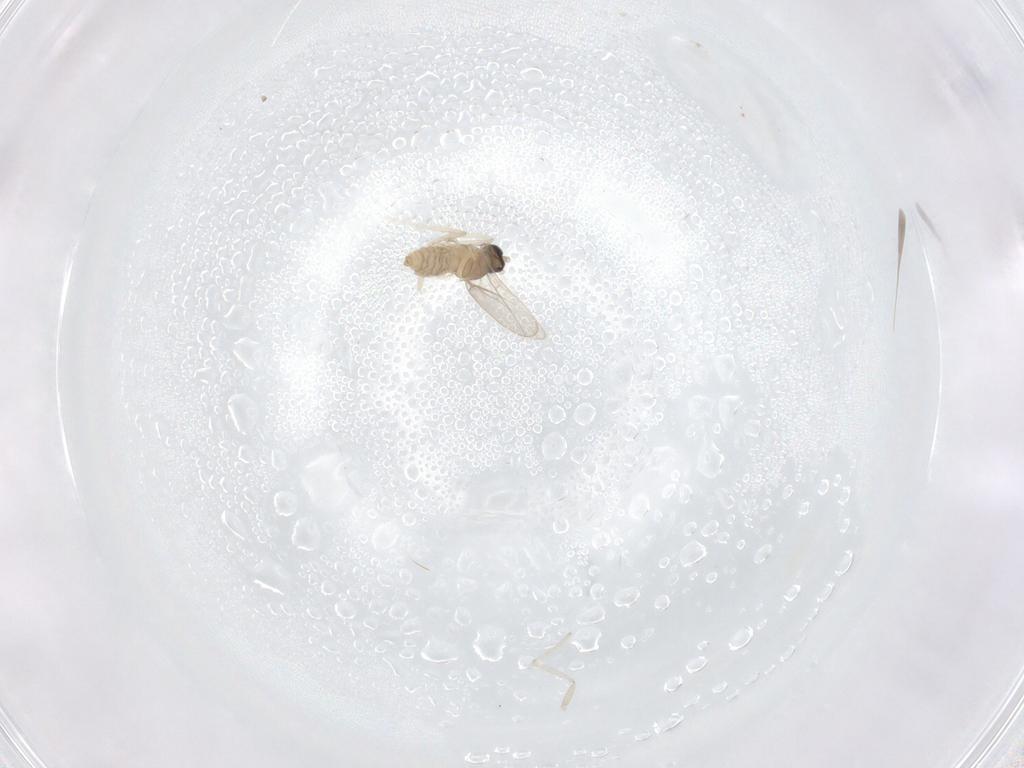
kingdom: Animalia
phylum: Arthropoda
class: Insecta
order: Diptera
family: Cecidomyiidae
